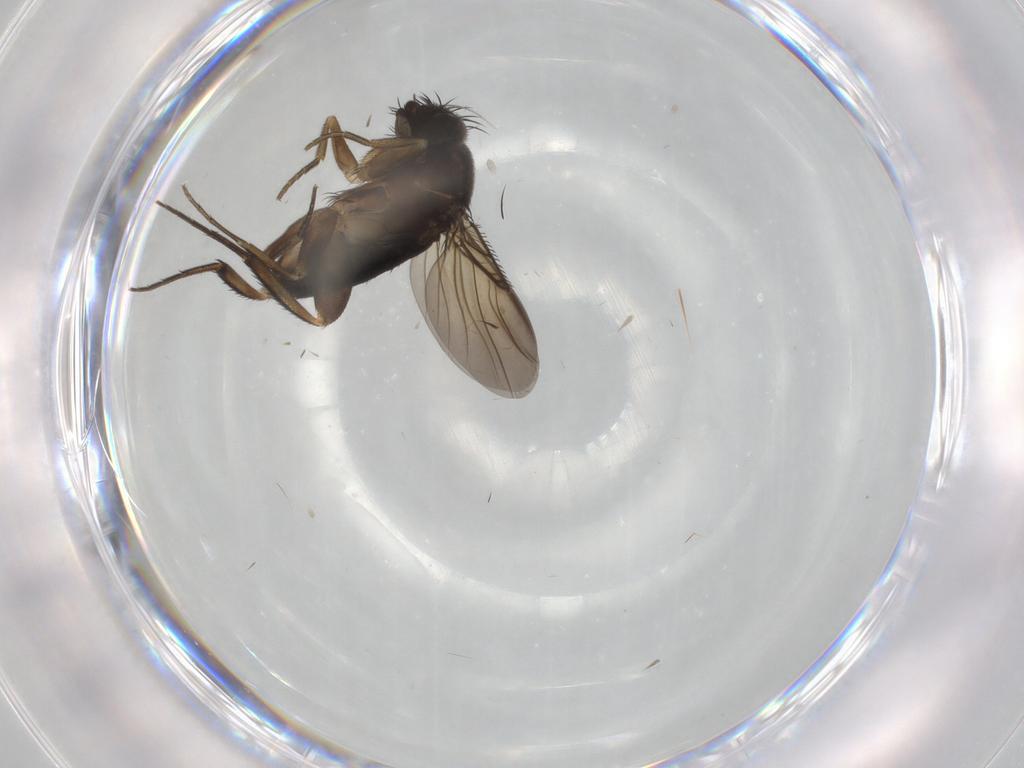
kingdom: Animalia
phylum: Arthropoda
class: Insecta
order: Diptera
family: Phoridae
